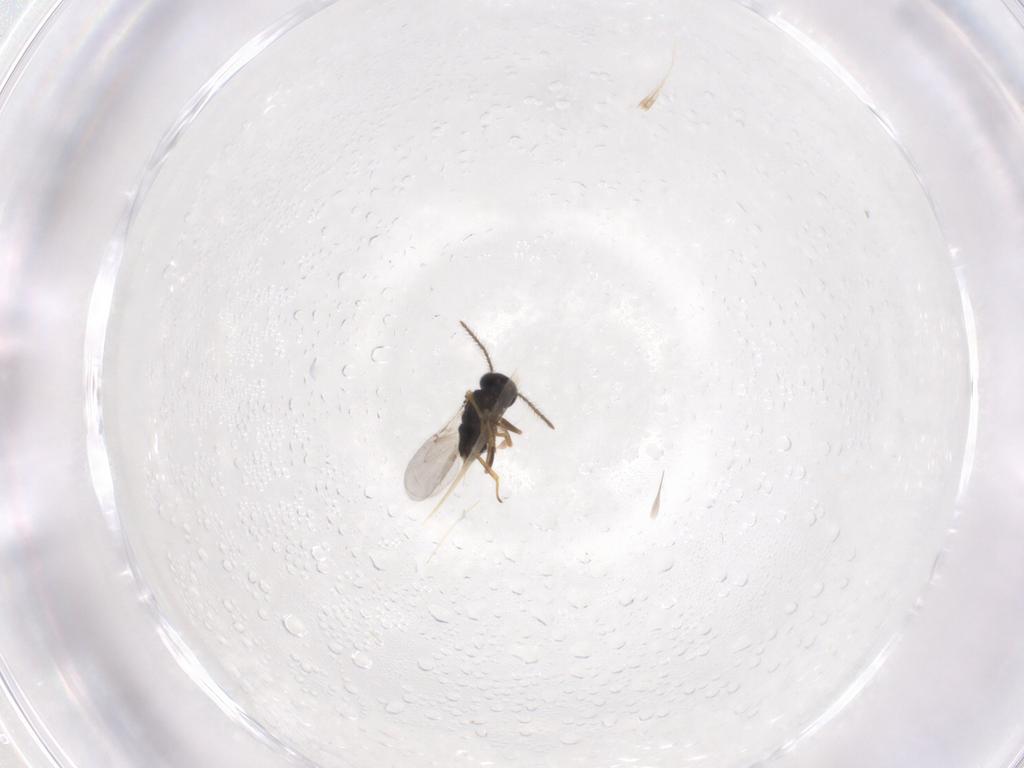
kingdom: Animalia
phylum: Arthropoda
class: Insecta
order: Hymenoptera
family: Encyrtidae
